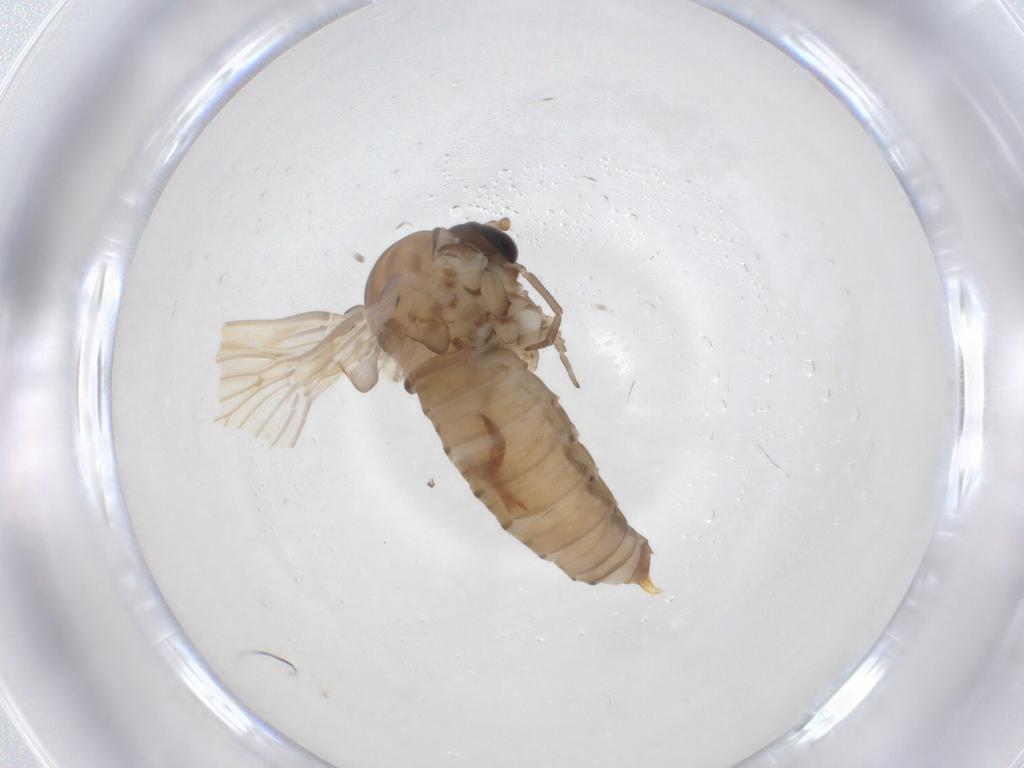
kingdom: Animalia
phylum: Arthropoda
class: Insecta
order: Diptera
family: Psychodidae
